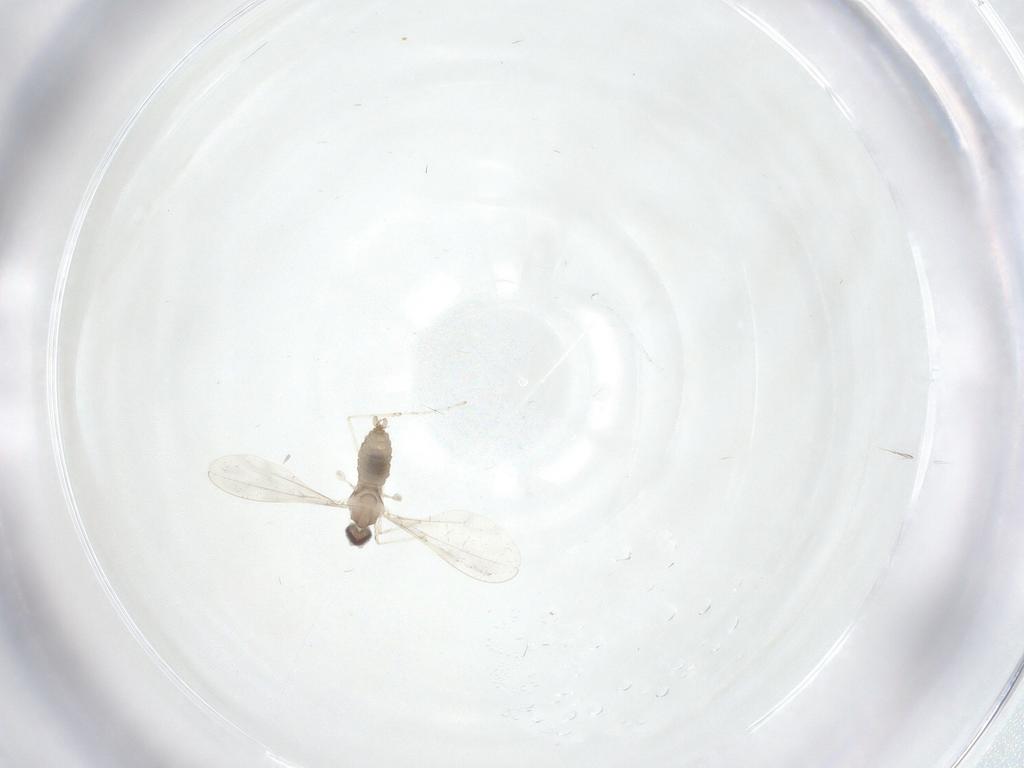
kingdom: Animalia
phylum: Arthropoda
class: Insecta
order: Diptera
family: Cecidomyiidae
